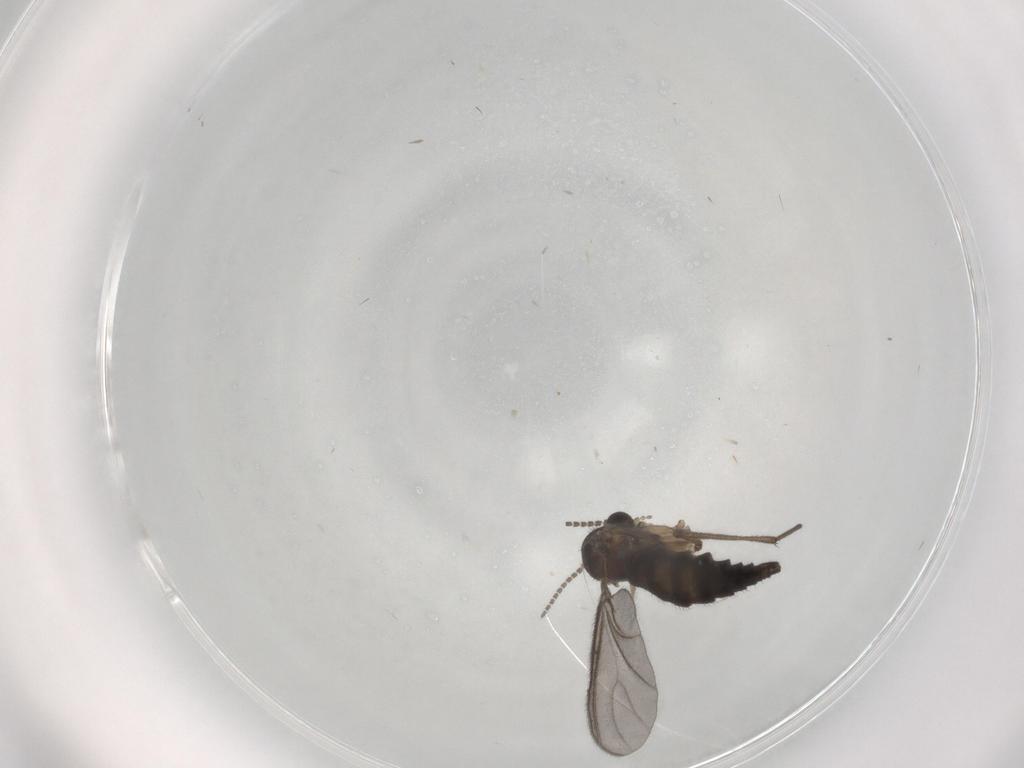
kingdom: Animalia
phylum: Arthropoda
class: Insecta
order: Diptera
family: Sciaridae
